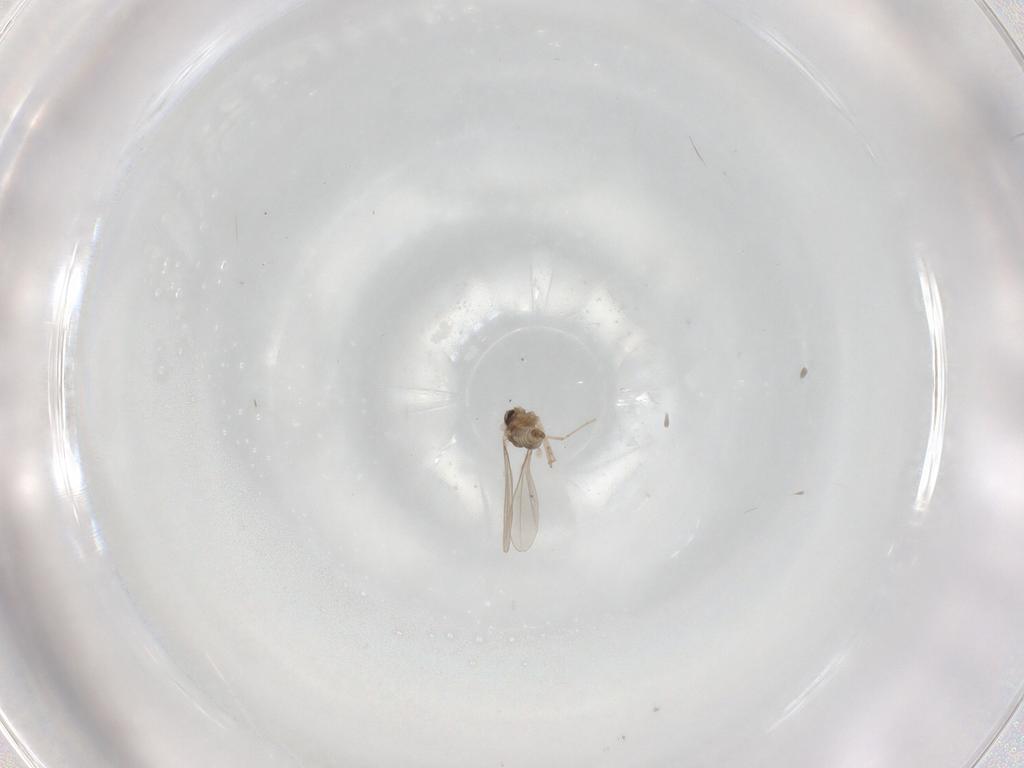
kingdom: Animalia
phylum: Arthropoda
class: Insecta
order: Diptera
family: Cecidomyiidae
